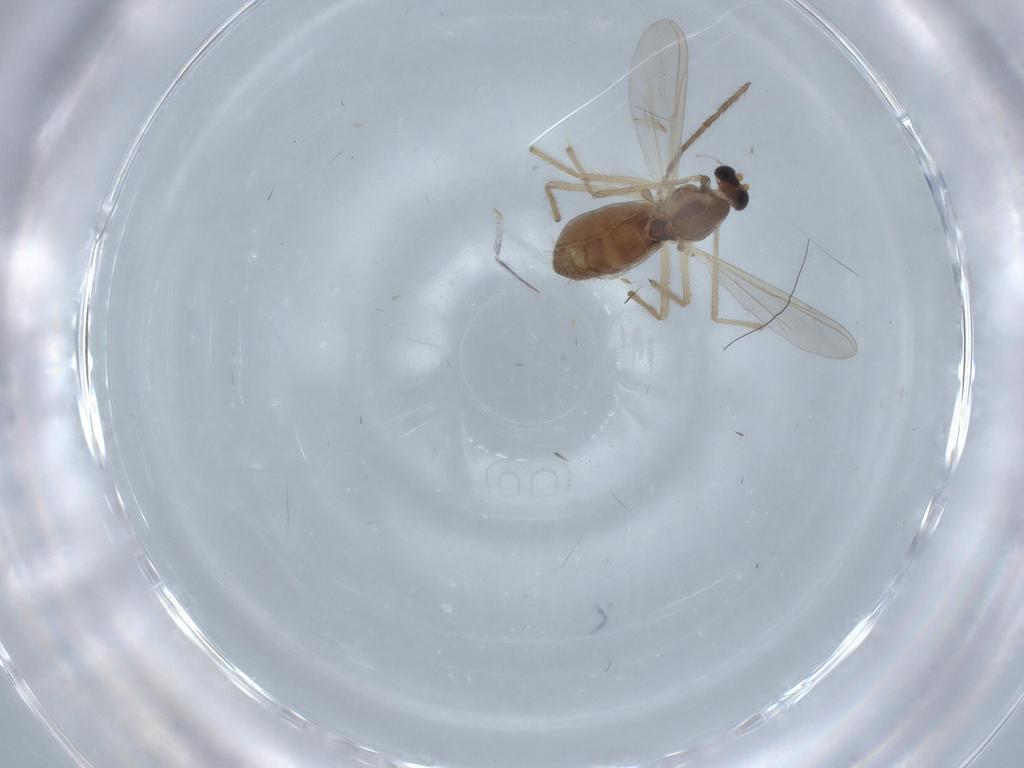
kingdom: Animalia
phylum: Arthropoda
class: Insecta
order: Diptera
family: Chironomidae
